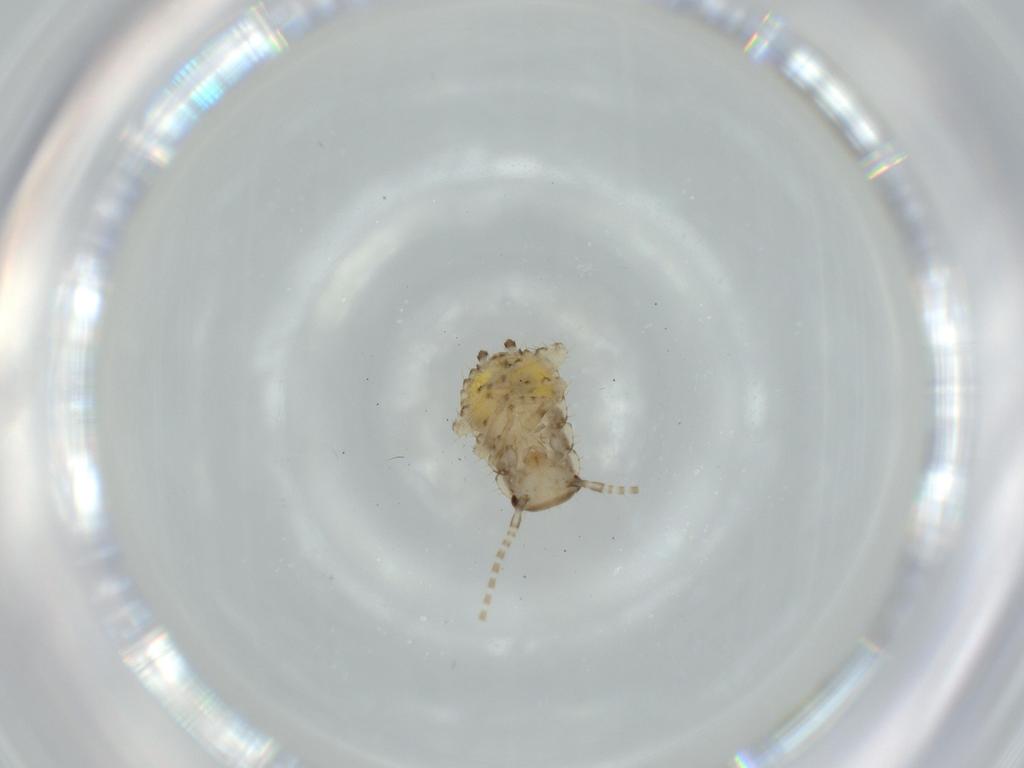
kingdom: Animalia
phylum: Arthropoda
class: Insecta
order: Blattodea
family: Ectobiidae
